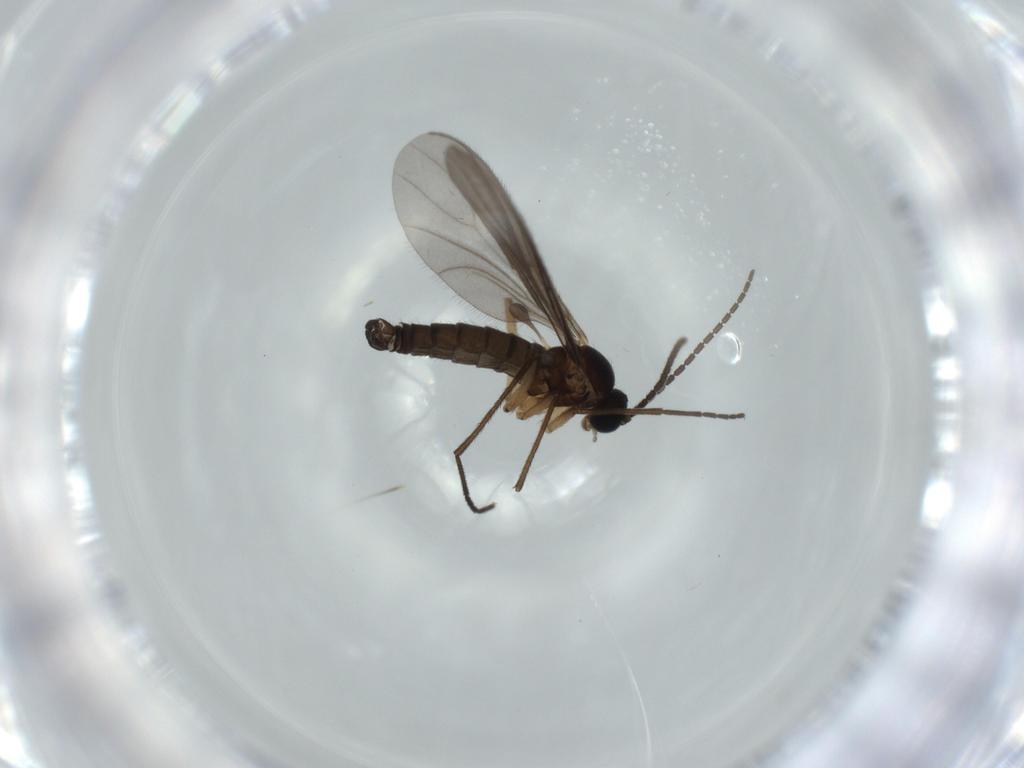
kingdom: Animalia
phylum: Arthropoda
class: Insecta
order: Diptera
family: Sciaridae
